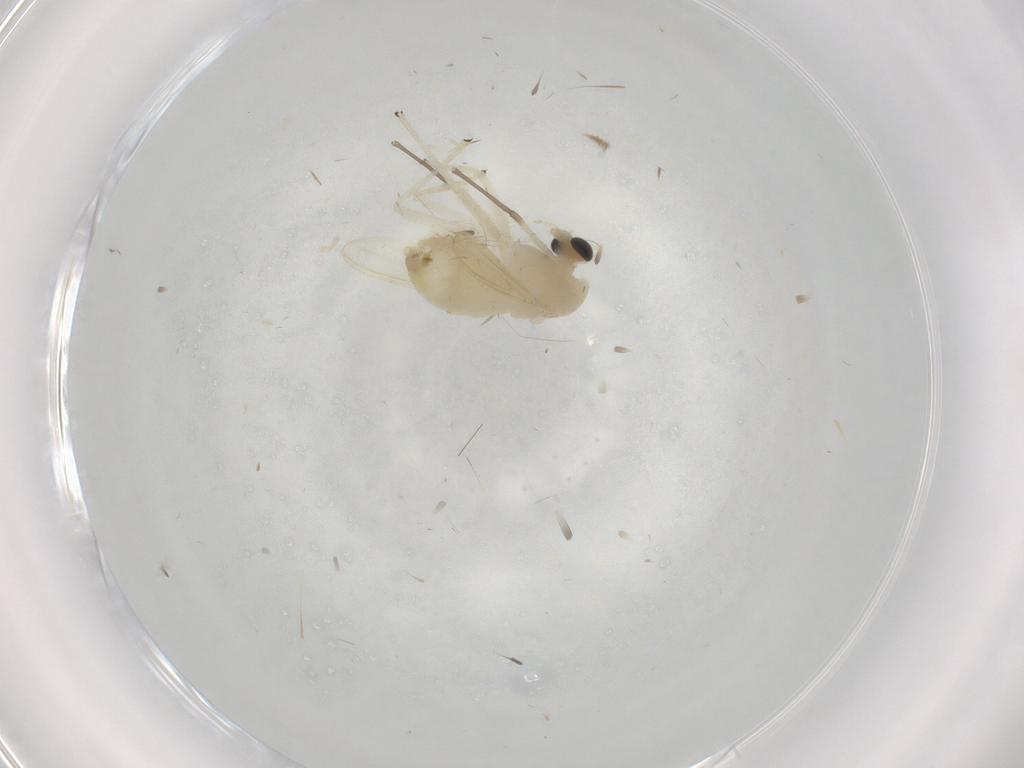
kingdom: Animalia
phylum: Arthropoda
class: Insecta
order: Diptera
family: Chironomidae
